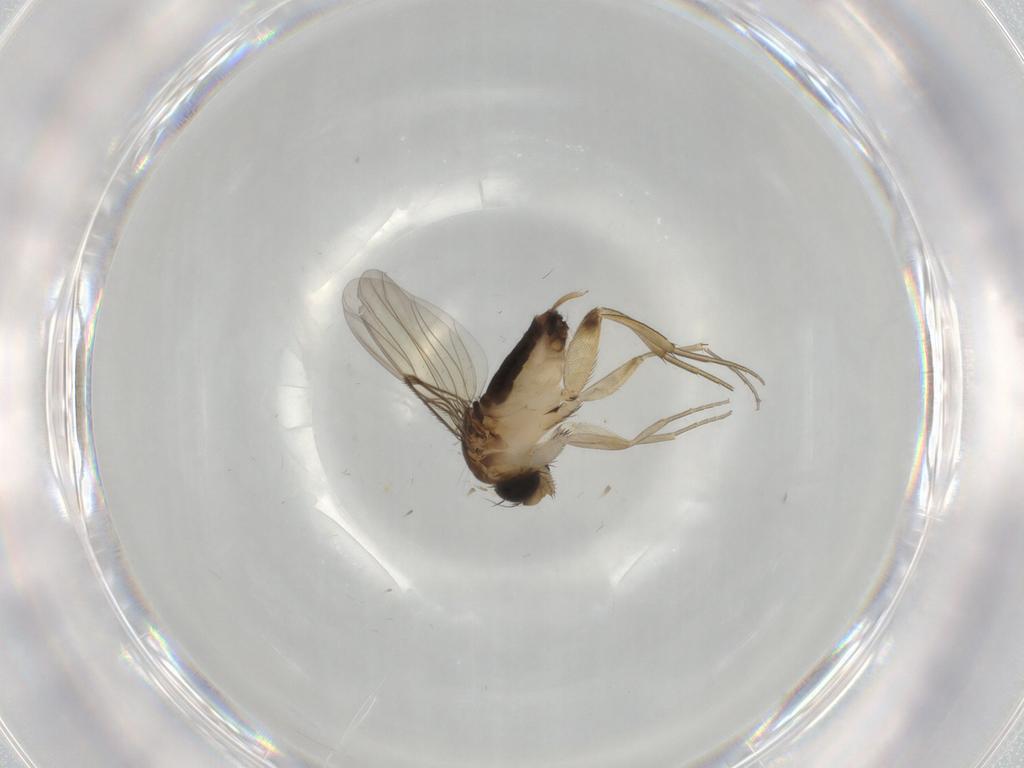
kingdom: Animalia
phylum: Arthropoda
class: Insecta
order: Diptera
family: Phoridae
